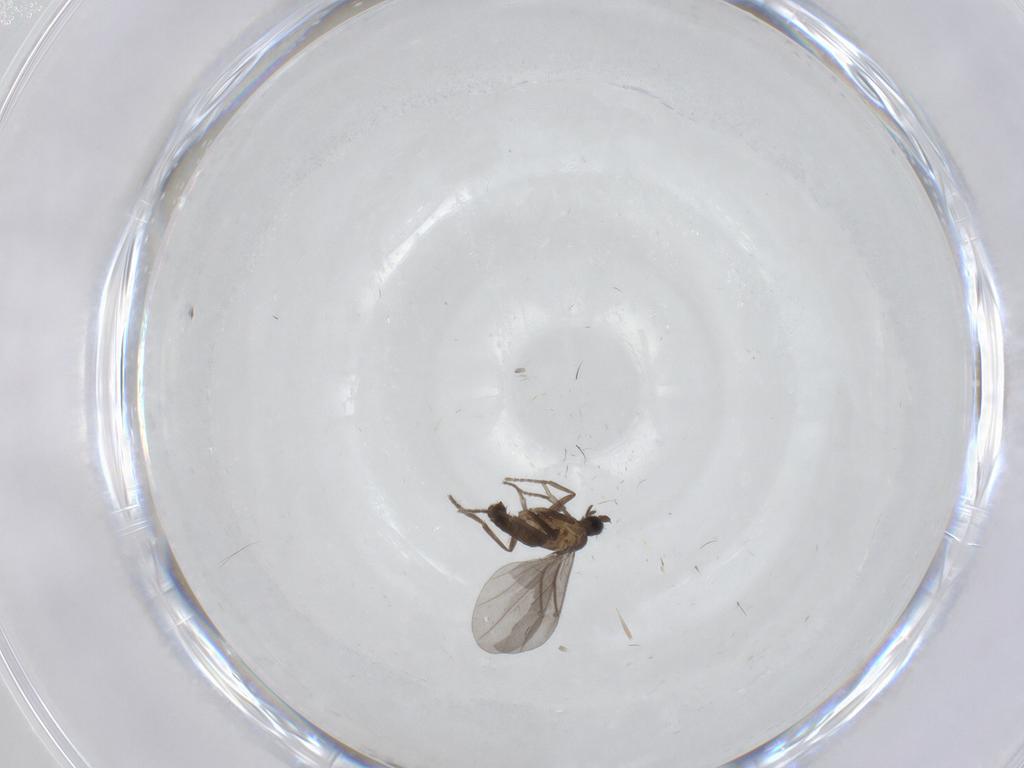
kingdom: Animalia
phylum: Arthropoda
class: Insecta
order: Diptera
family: Phoridae
